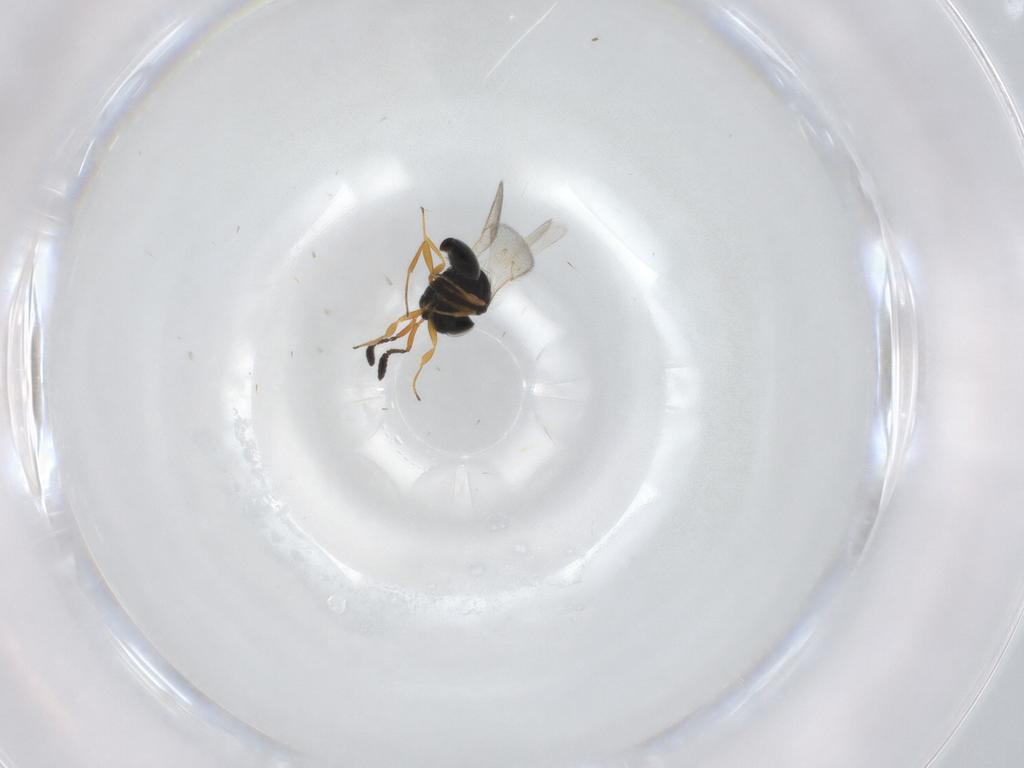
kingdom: Animalia
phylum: Arthropoda
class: Insecta
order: Hymenoptera
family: Scelionidae
